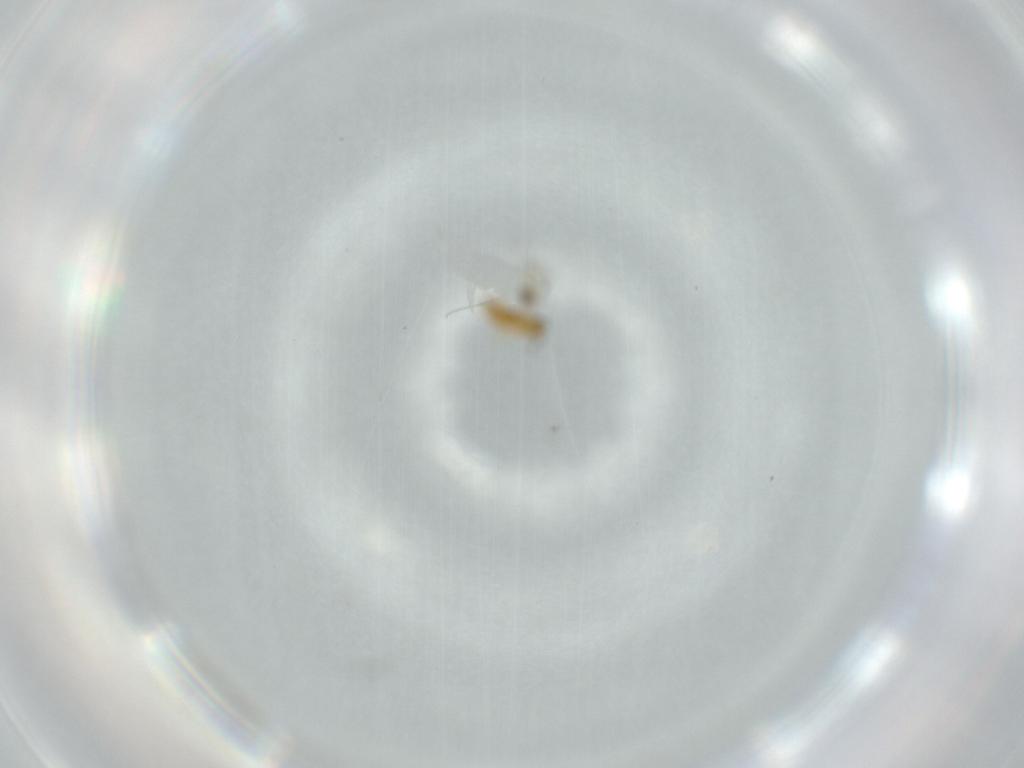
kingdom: Animalia
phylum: Arthropoda
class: Insecta
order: Hymenoptera
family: Signiphoridae
